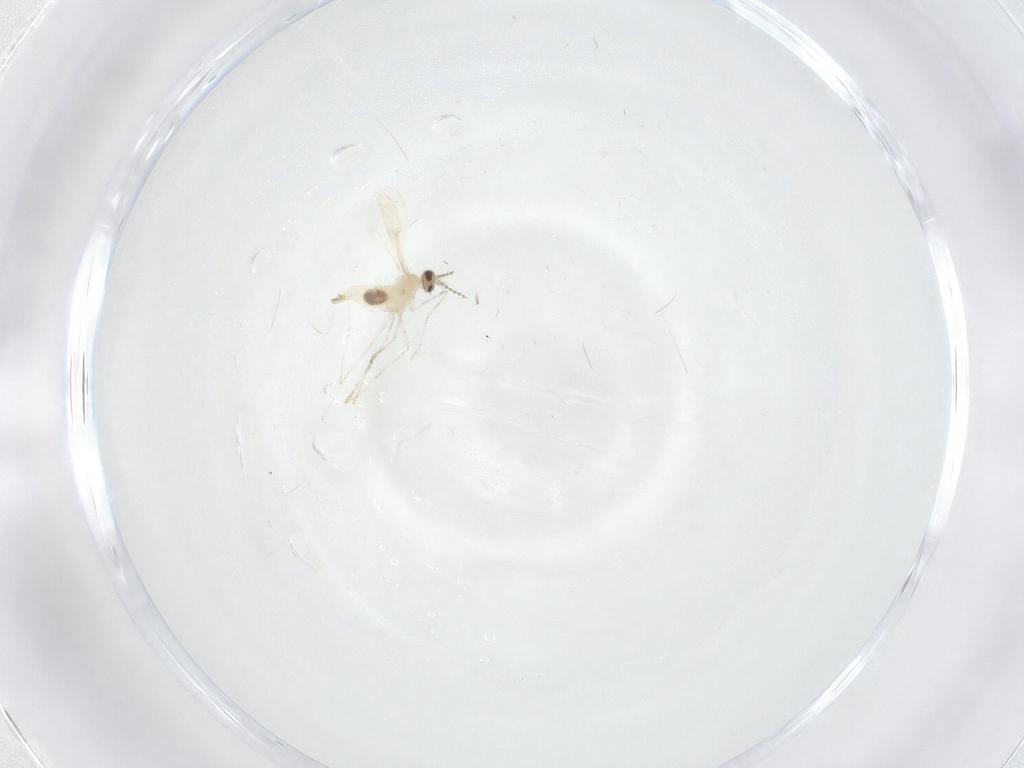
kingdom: Animalia
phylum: Arthropoda
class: Insecta
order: Diptera
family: Cecidomyiidae
